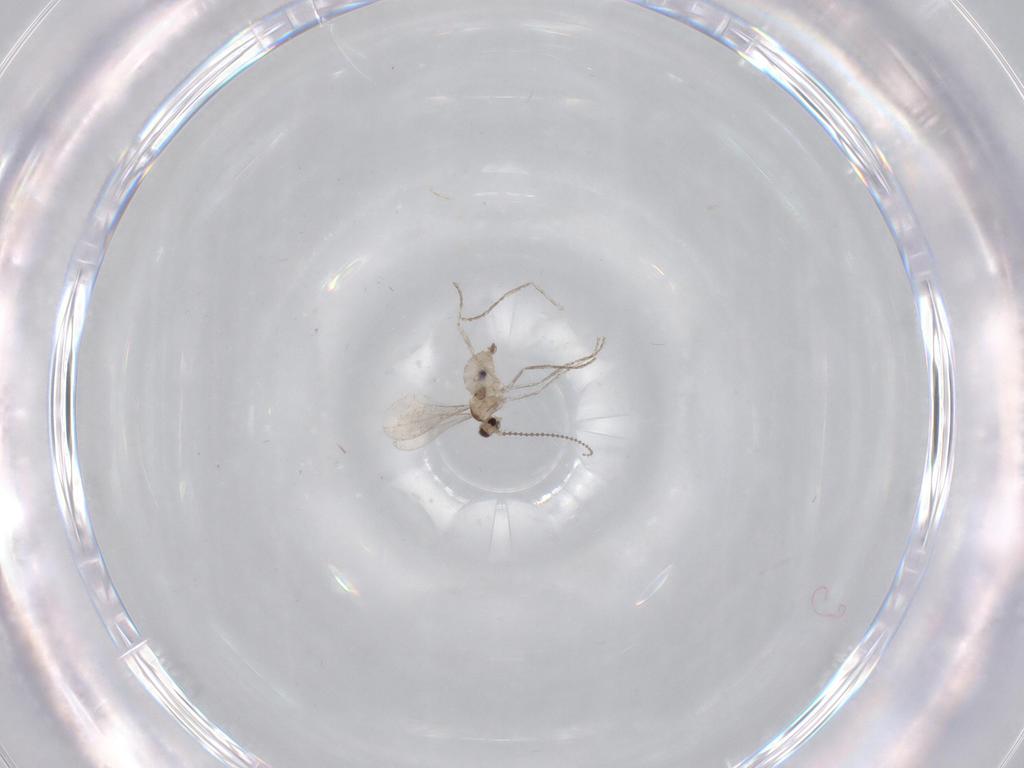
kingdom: Animalia
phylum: Arthropoda
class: Insecta
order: Diptera
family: Cecidomyiidae
